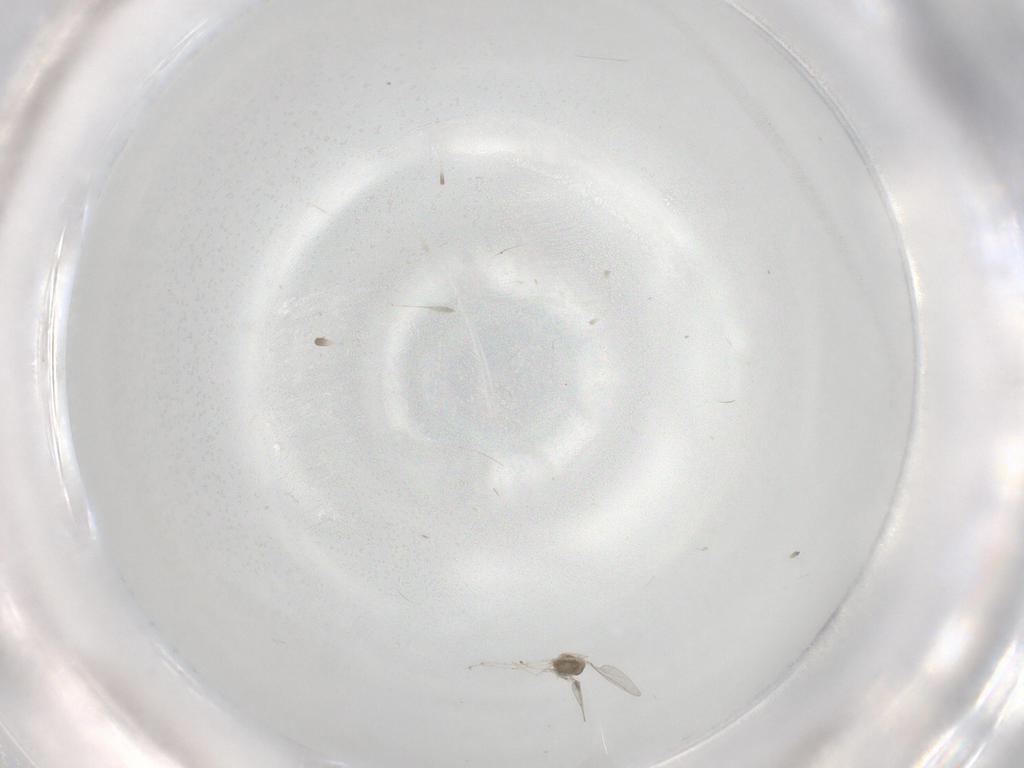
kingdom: Animalia
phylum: Arthropoda
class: Insecta
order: Diptera
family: Cecidomyiidae
